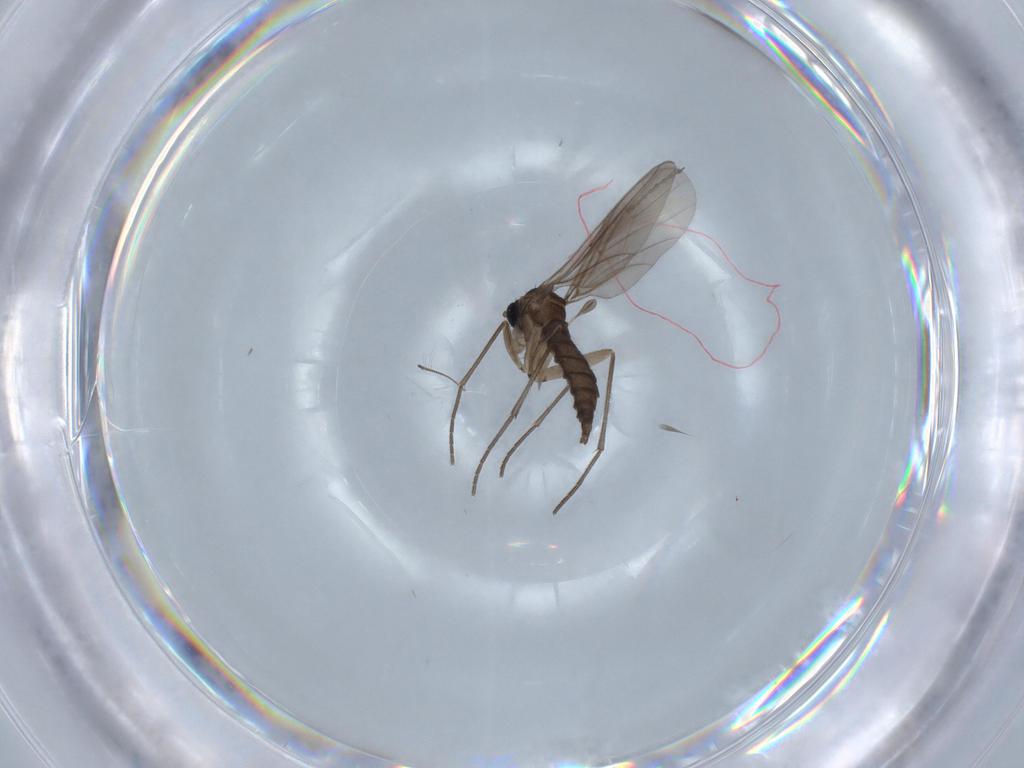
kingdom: Animalia
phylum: Arthropoda
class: Insecta
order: Diptera
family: Sciaridae
